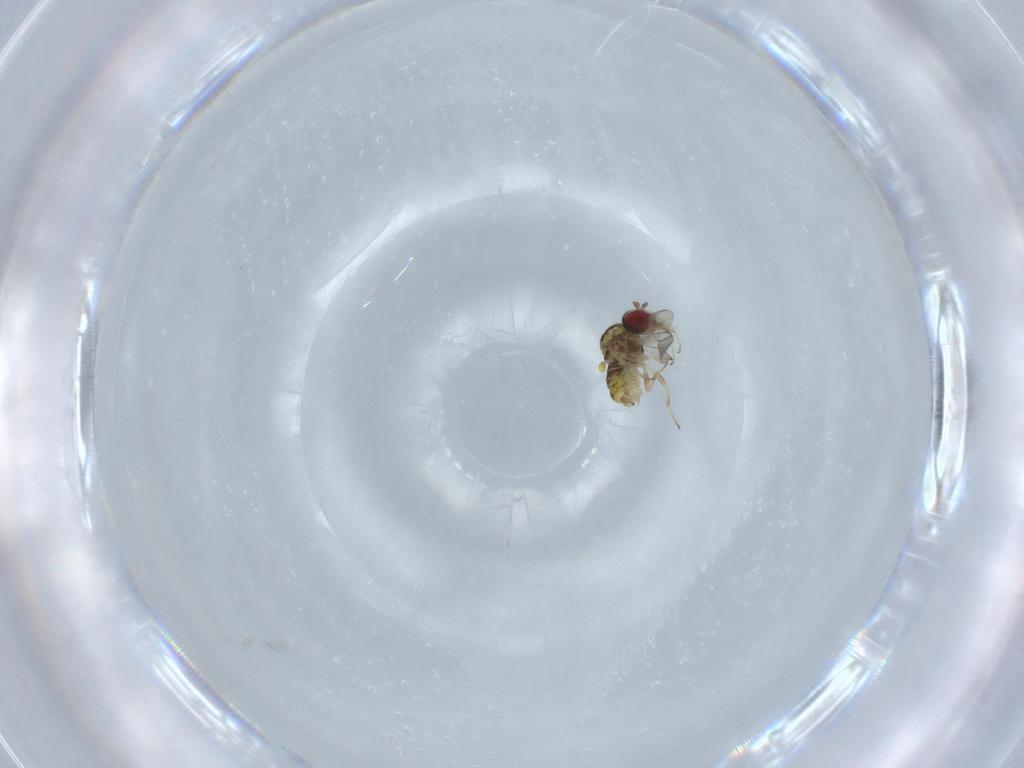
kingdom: Animalia
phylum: Arthropoda
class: Insecta
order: Diptera
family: Bombyliidae
